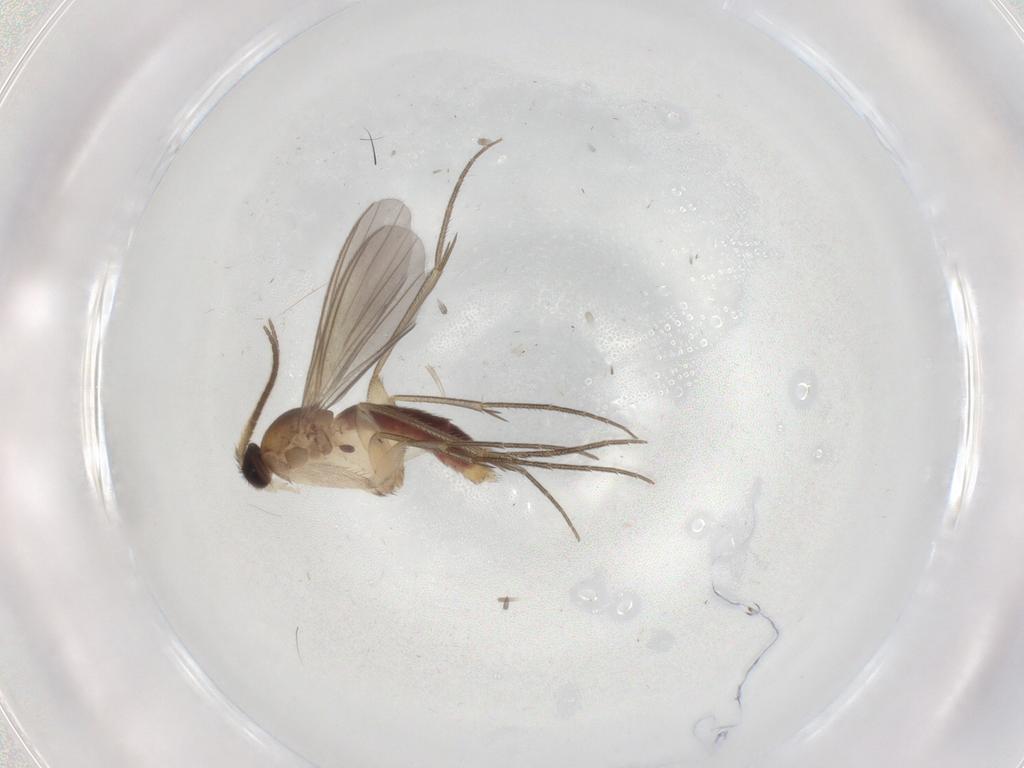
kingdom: Animalia
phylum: Arthropoda
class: Insecta
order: Diptera
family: Mycetophilidae
